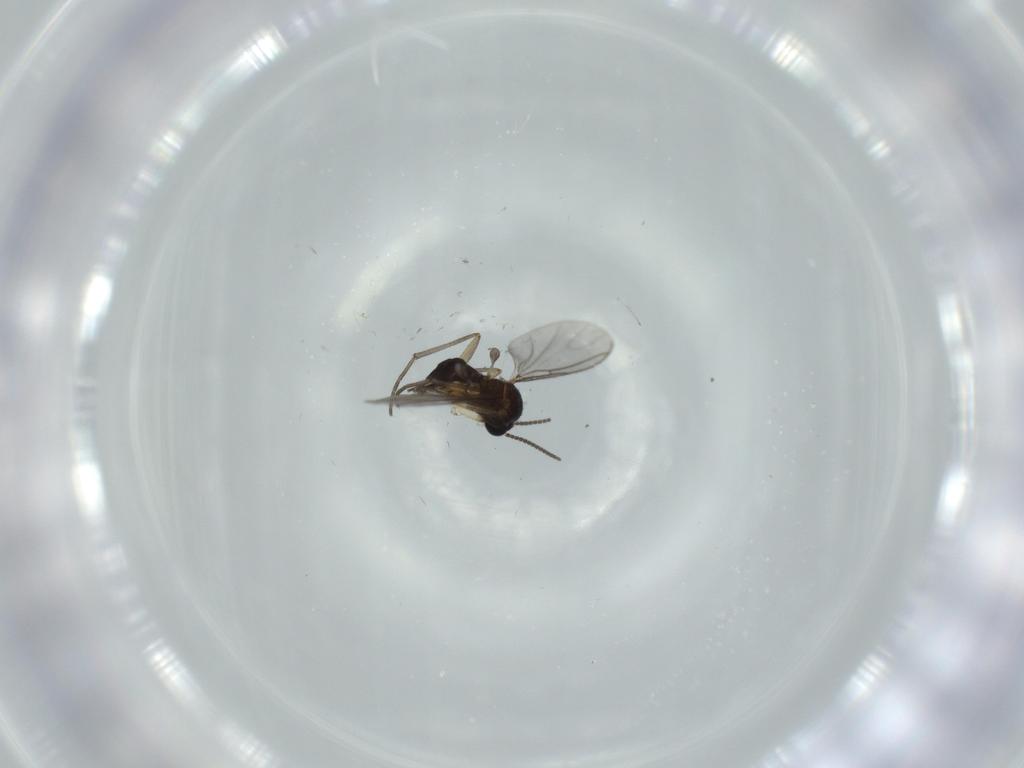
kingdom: Animalia
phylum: Arthropoda
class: Insecta
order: Diptera
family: Sciaridae
